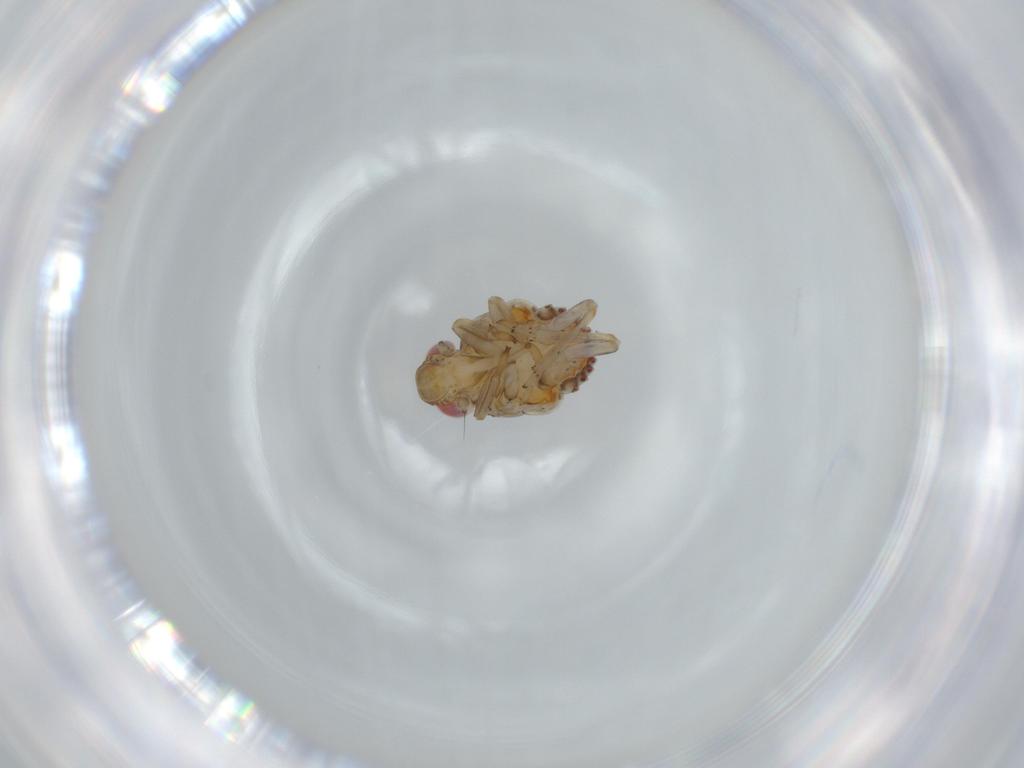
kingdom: Animalia
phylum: Arthropoda
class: Insecta
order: Hemiptera
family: Issidae
